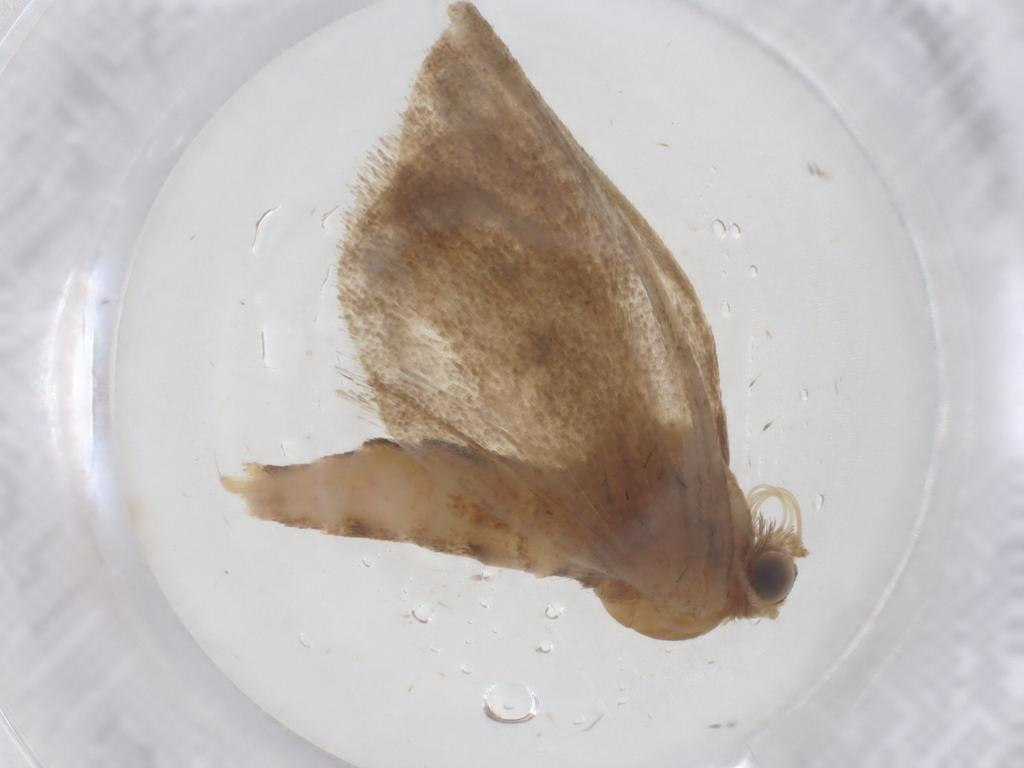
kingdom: Animalia
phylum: Arthropoda
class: Insecta
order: Lepidoptera
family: Geometridae
